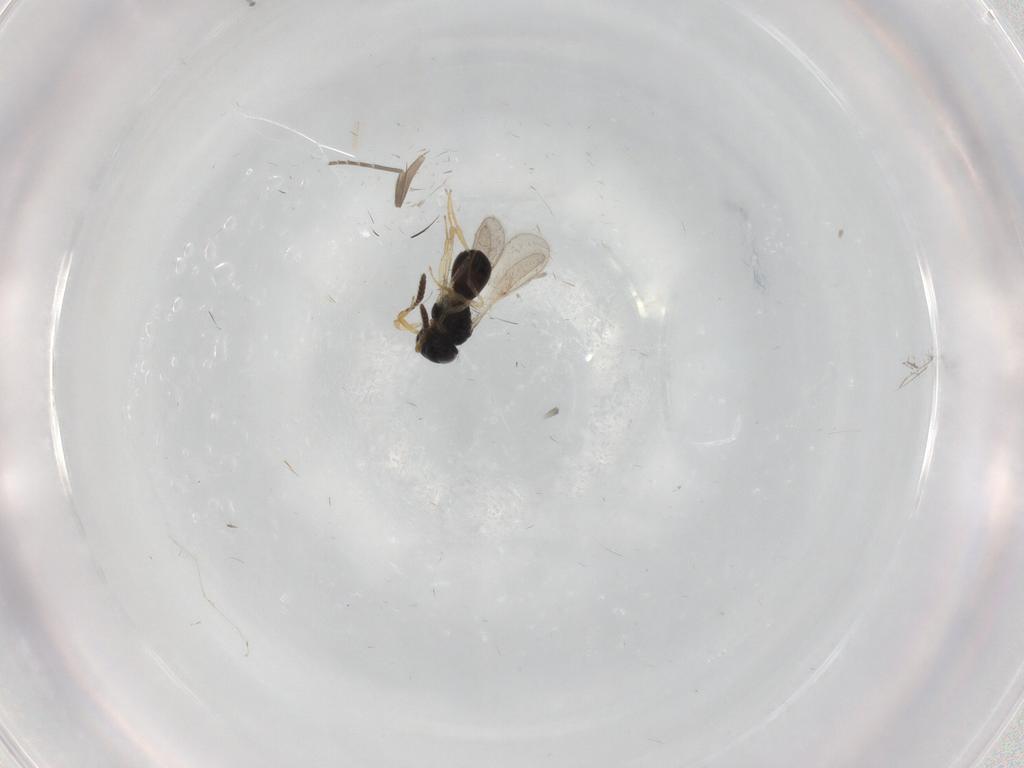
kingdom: Animalia
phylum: Arthropoda
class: Insecta
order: Hymenoptera
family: Scelionidae
